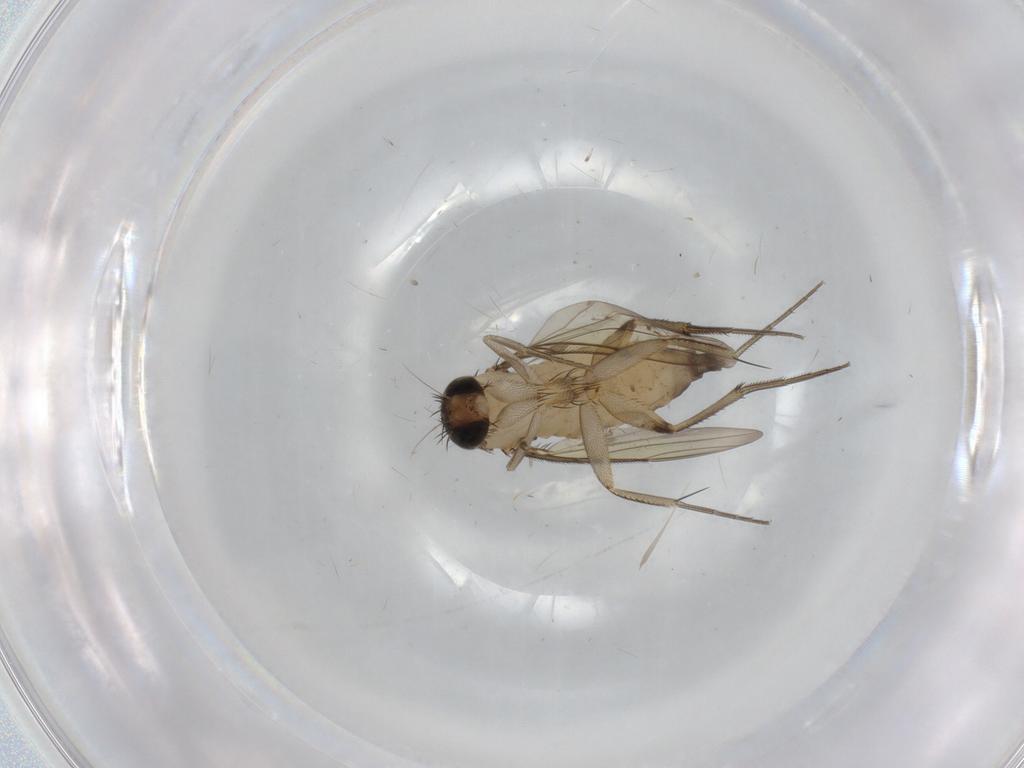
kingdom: Animalia
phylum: Arthropoda
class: Insecta
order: Diptera
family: Phoridae
